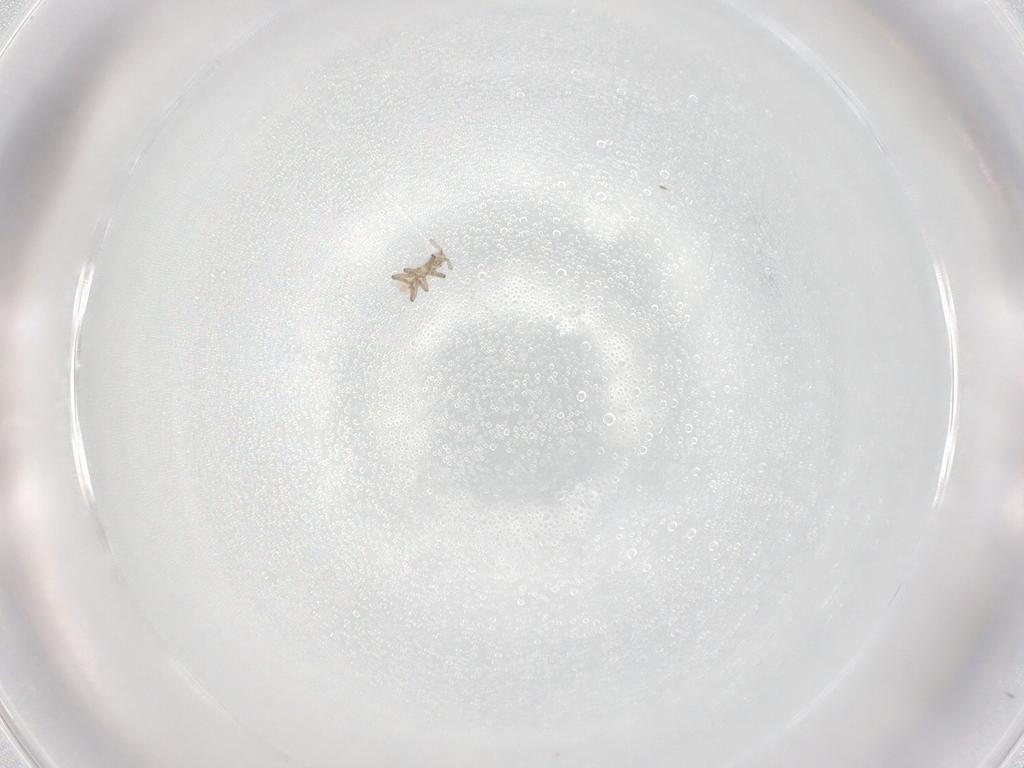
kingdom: Animalia
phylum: Arthropoda
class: Insecta
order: Hemiptera
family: Aphididae
